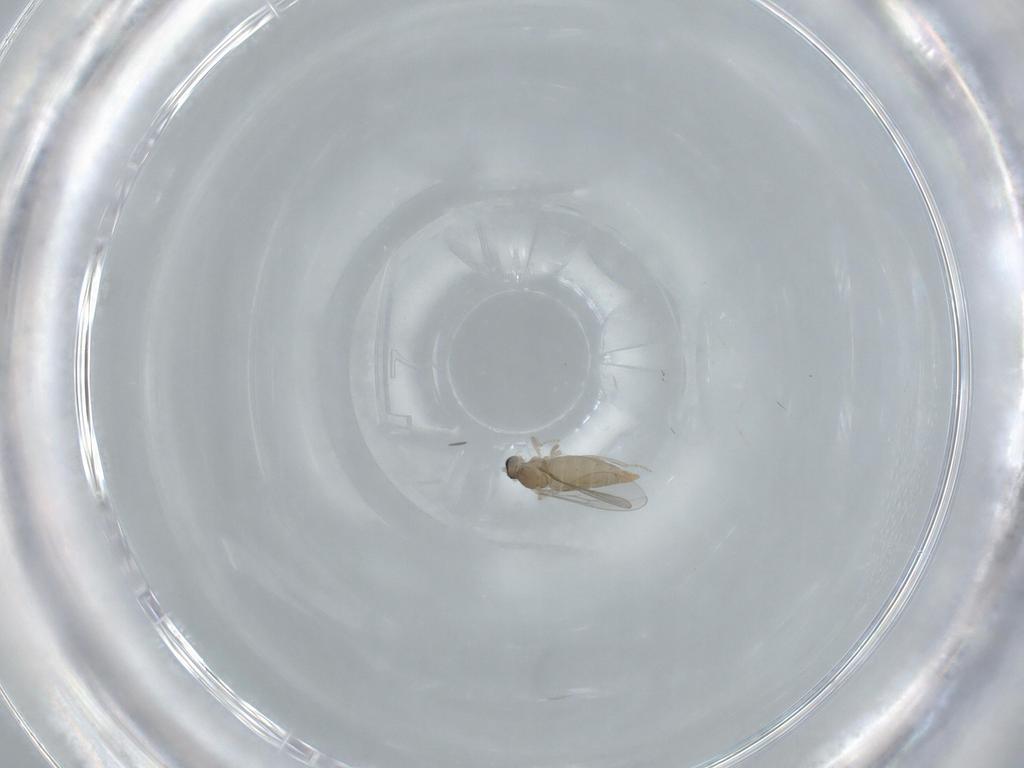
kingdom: Animalia
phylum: Arthropoda
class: Insecta
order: Diptera
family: Cecidomyiidae
